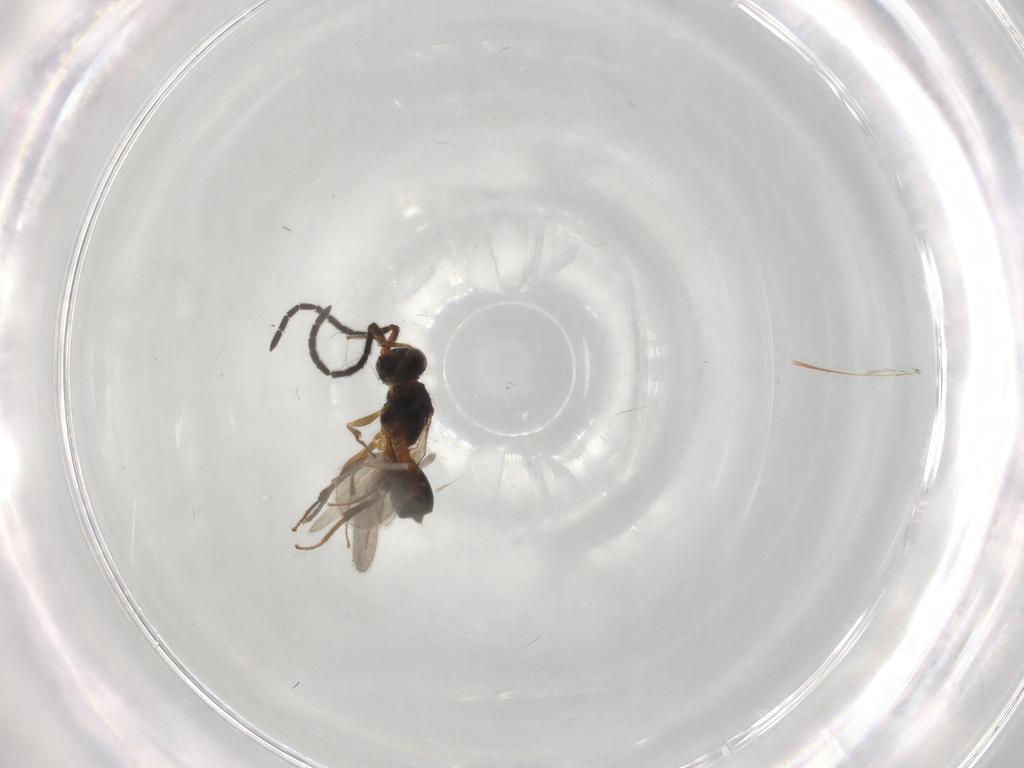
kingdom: Animalia
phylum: Arthropoda
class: Insecta
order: Hymenoptera
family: Megaspilidae
